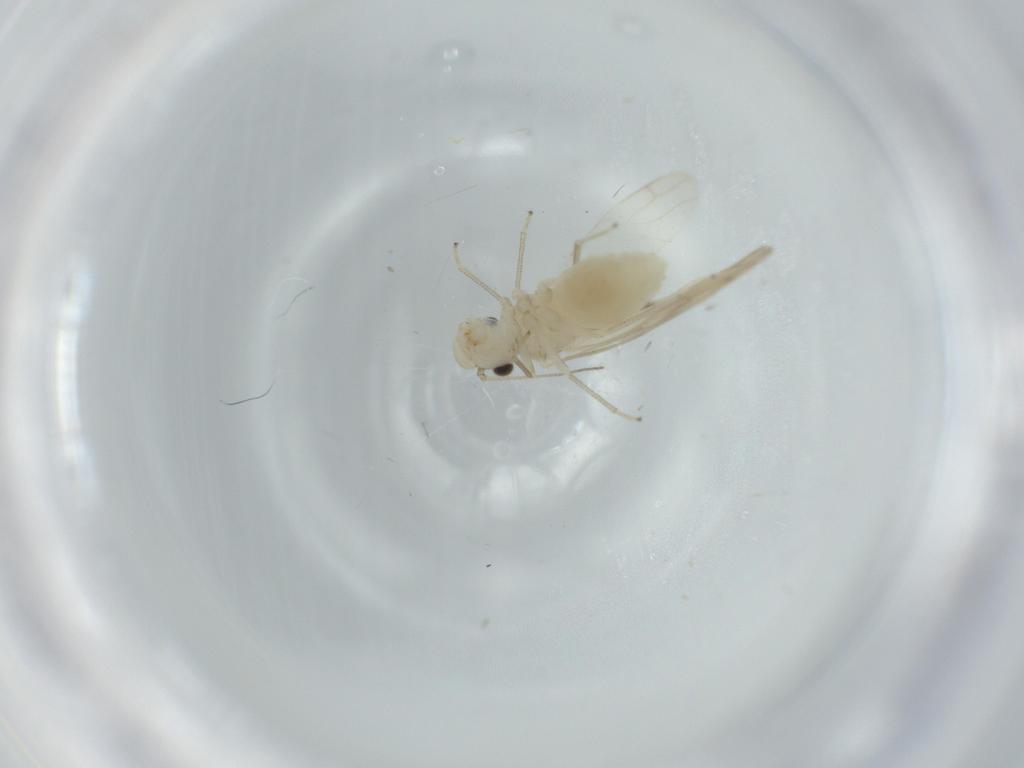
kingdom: Animalia
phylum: Arthropoda
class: Insecta
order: Psocodea
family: Caeciliusidae
